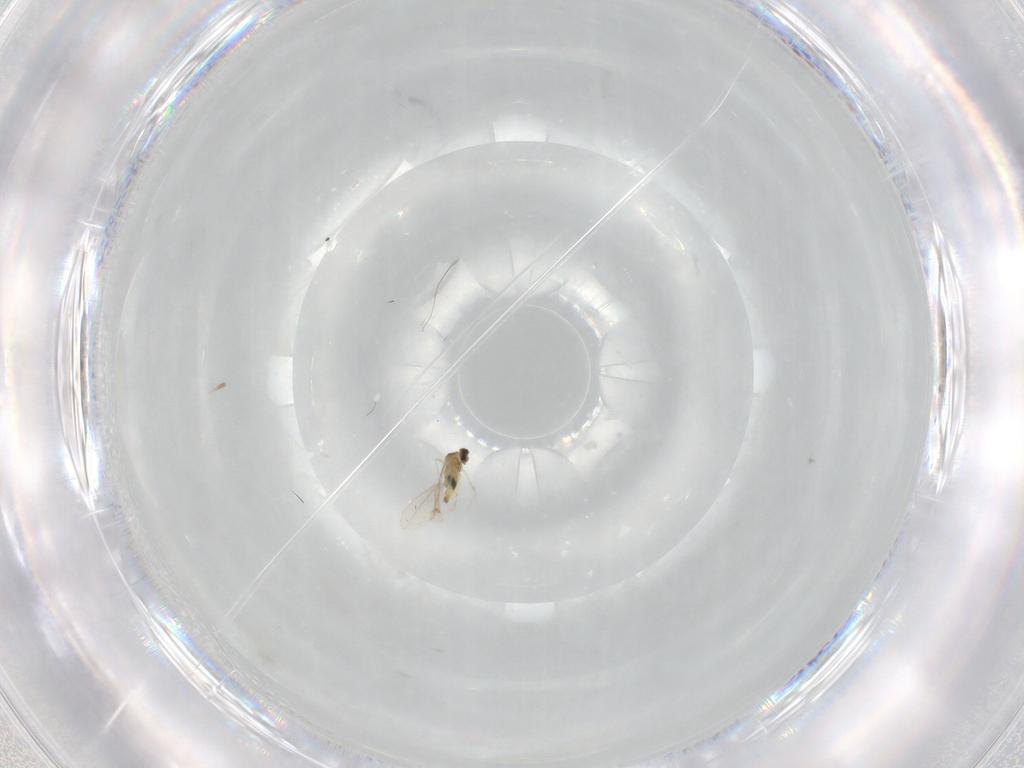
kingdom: Animalia
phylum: Arthropoda
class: Insecta
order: Diptera
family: Cecidomyiidae
